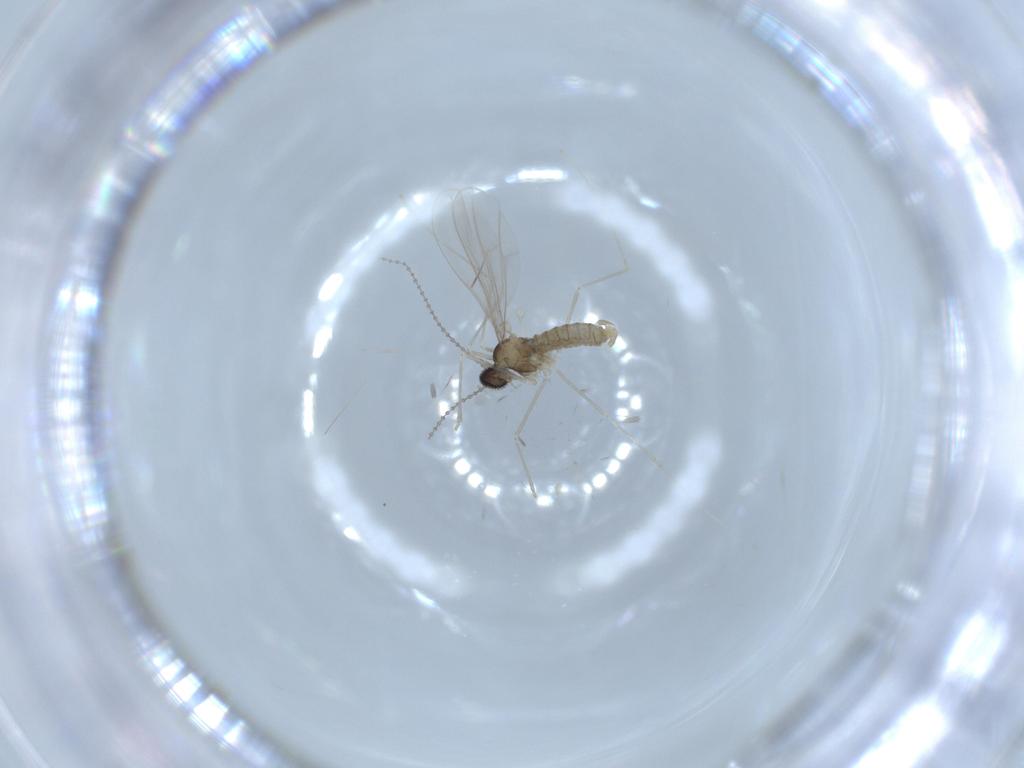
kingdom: Animalia
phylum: Arthropoda
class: Insecta
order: Diptera
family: Cecidomyiidae
